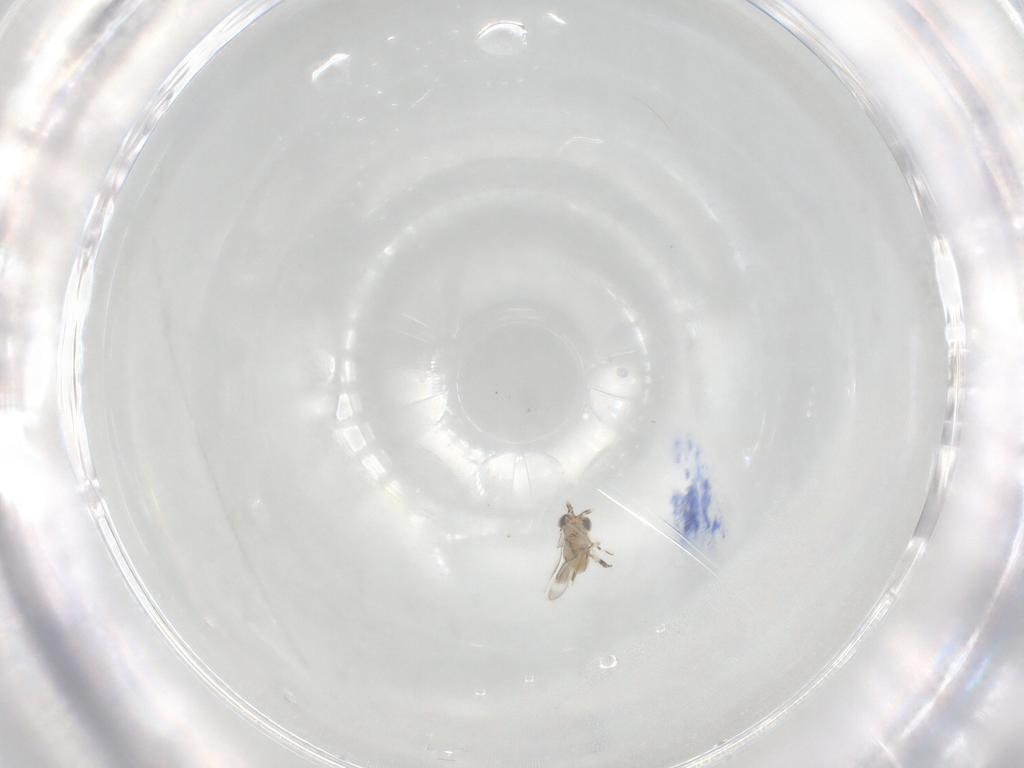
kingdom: Animalia
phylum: Arthropoda
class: Insecta
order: Hymenoptera
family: Aphelinidae
